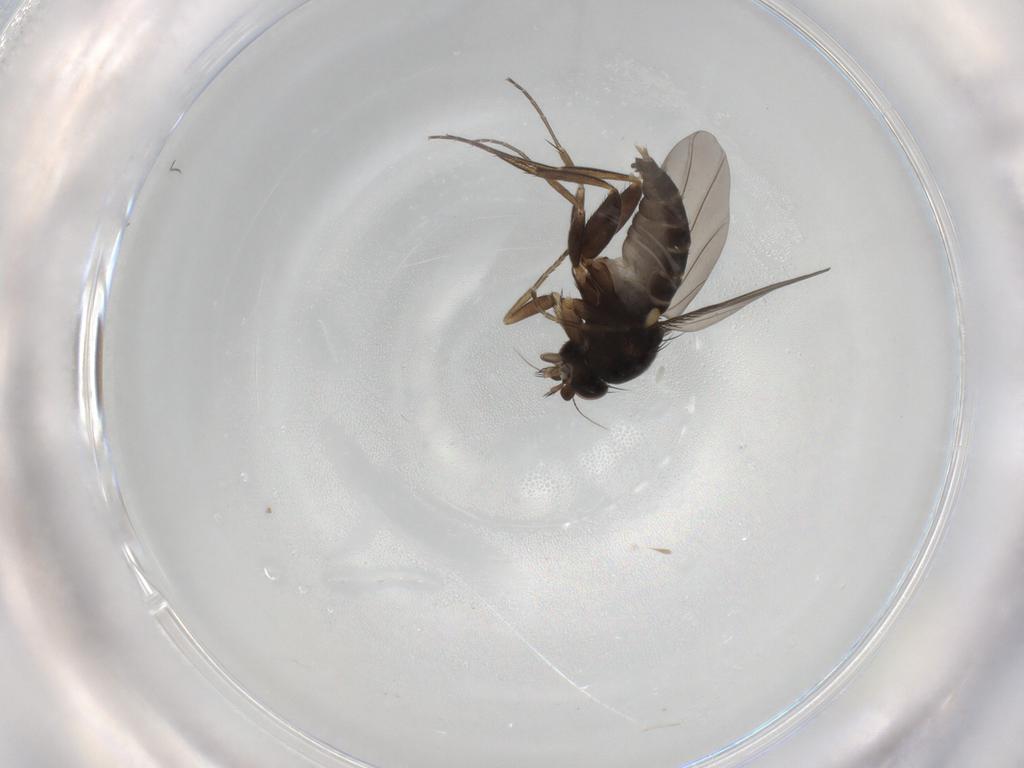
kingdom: Animalia
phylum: Arthropoda
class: Insecta
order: Diptera
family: Phoridae
